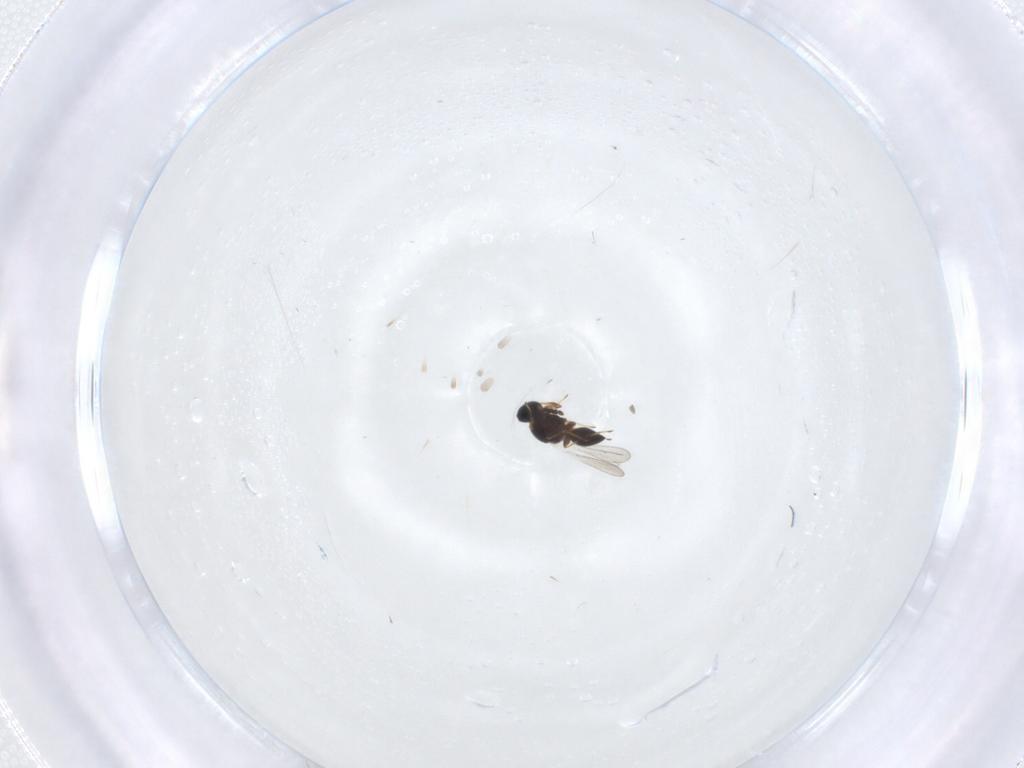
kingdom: Animalia
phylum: Arthropoda
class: Insecta
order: Hymenoptera
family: Platygastridae
